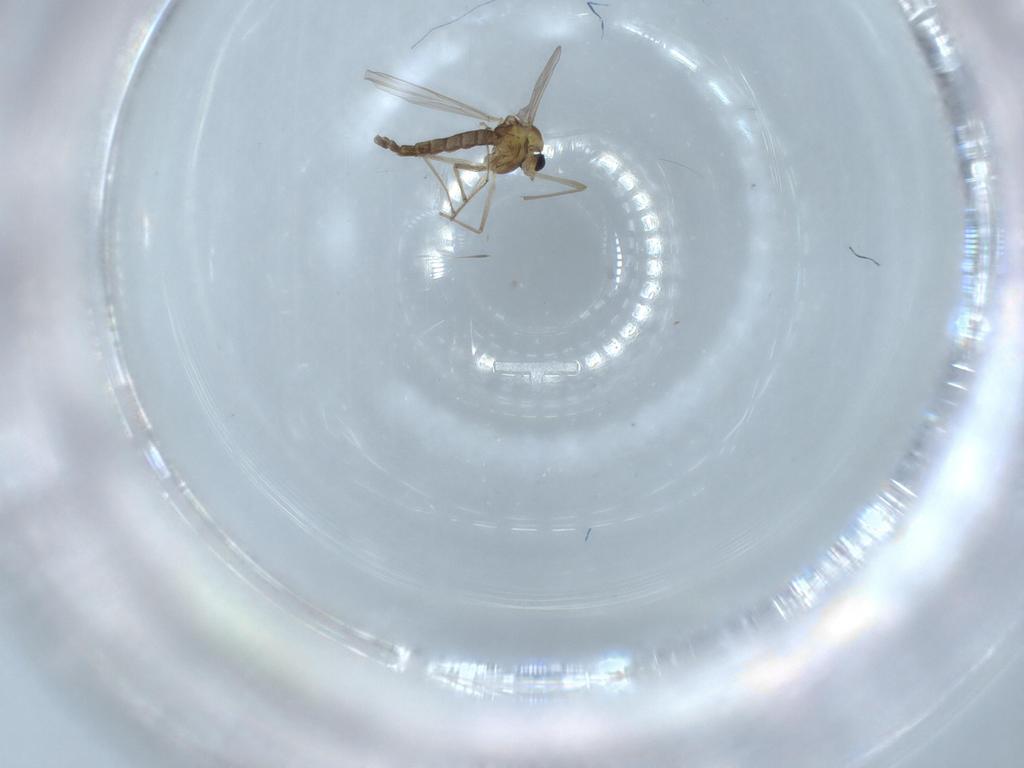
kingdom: Animalia
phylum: Arthropoda
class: Insecta
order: Diptera
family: Chironomidae
